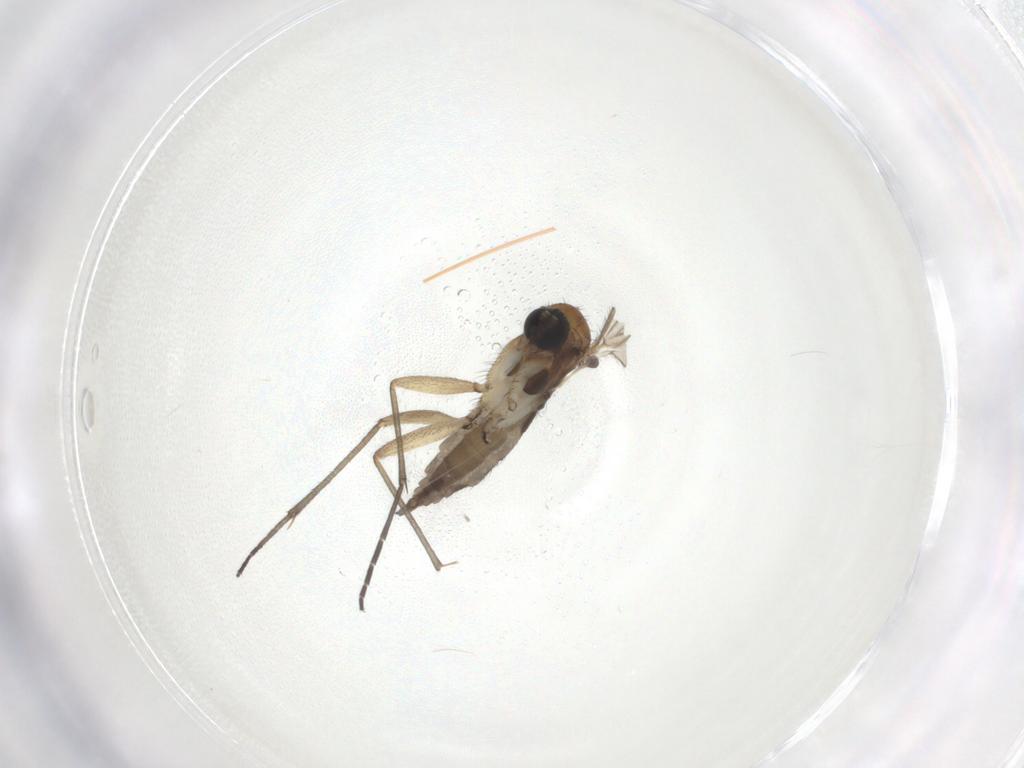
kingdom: Animalia
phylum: Arthropoda
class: Insecta
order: Diptera
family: Sciaridae
